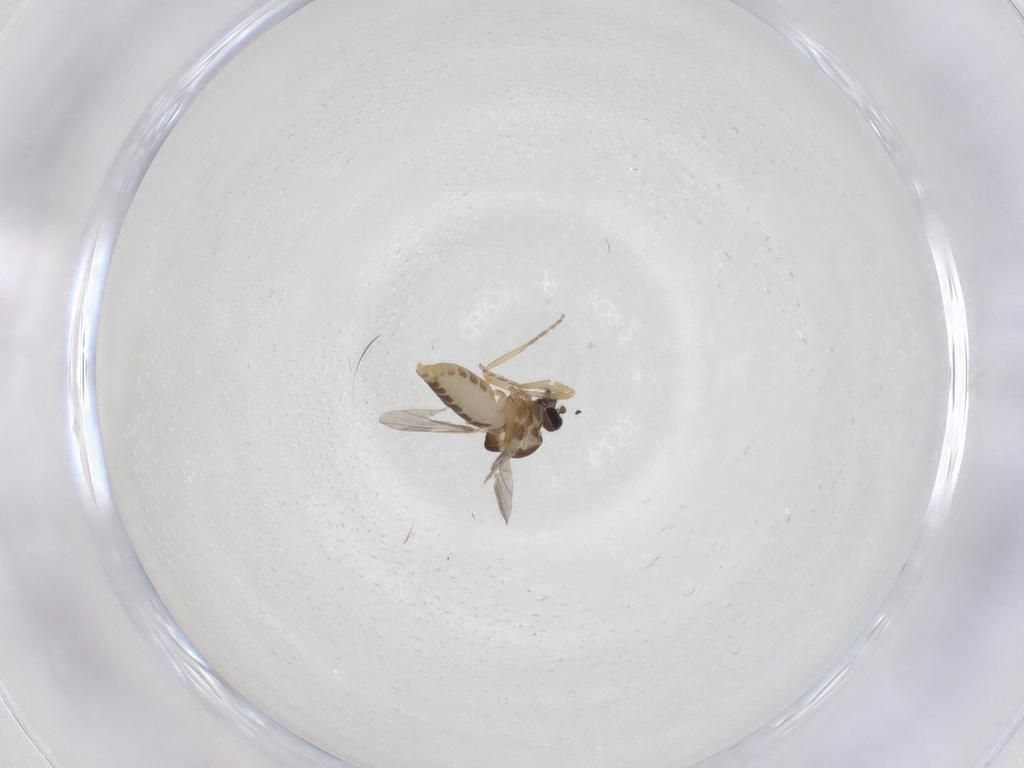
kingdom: Animalia
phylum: Arthropoda
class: Insecta
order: Diptera
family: Ceratopogonidae
